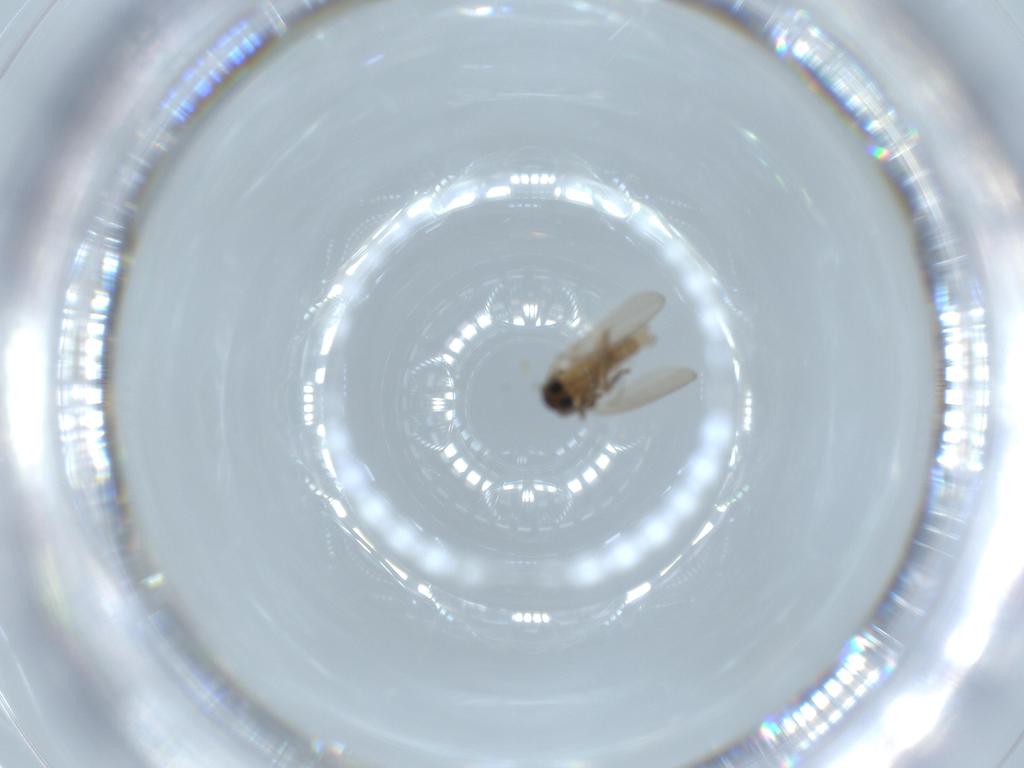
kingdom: Animalia
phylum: Arthropoda
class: Insecta
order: Diptera
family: Psychodidae
